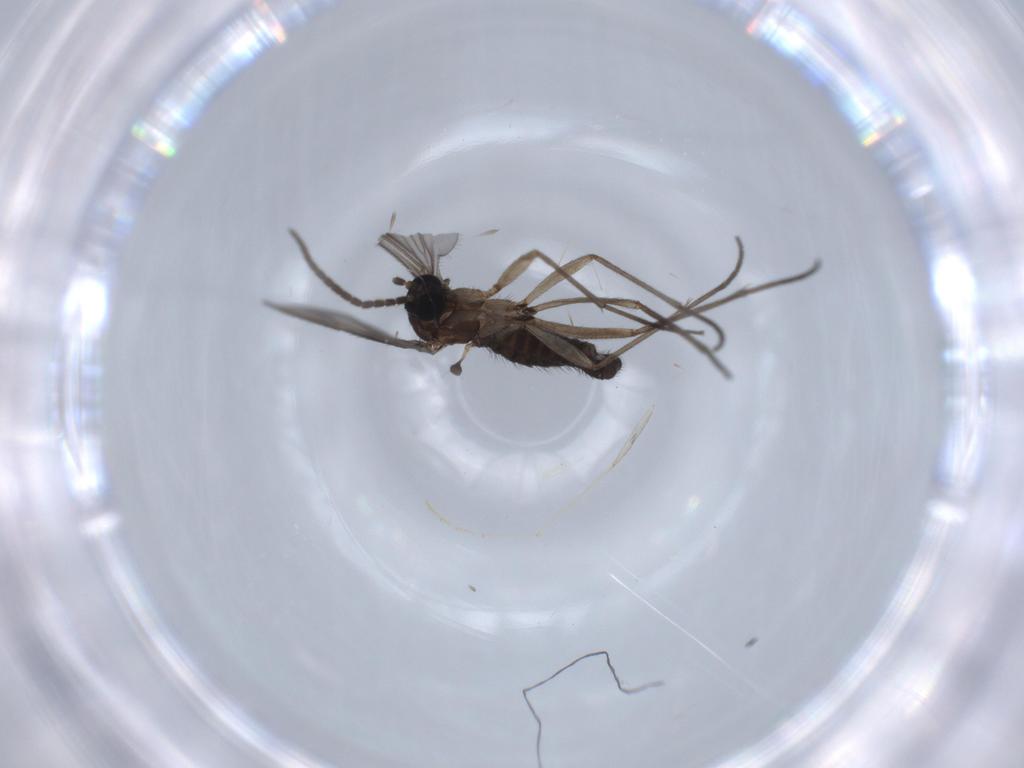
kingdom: Animalia
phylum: Arthropoda
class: Insecta
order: Diptera
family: Sciaridae
